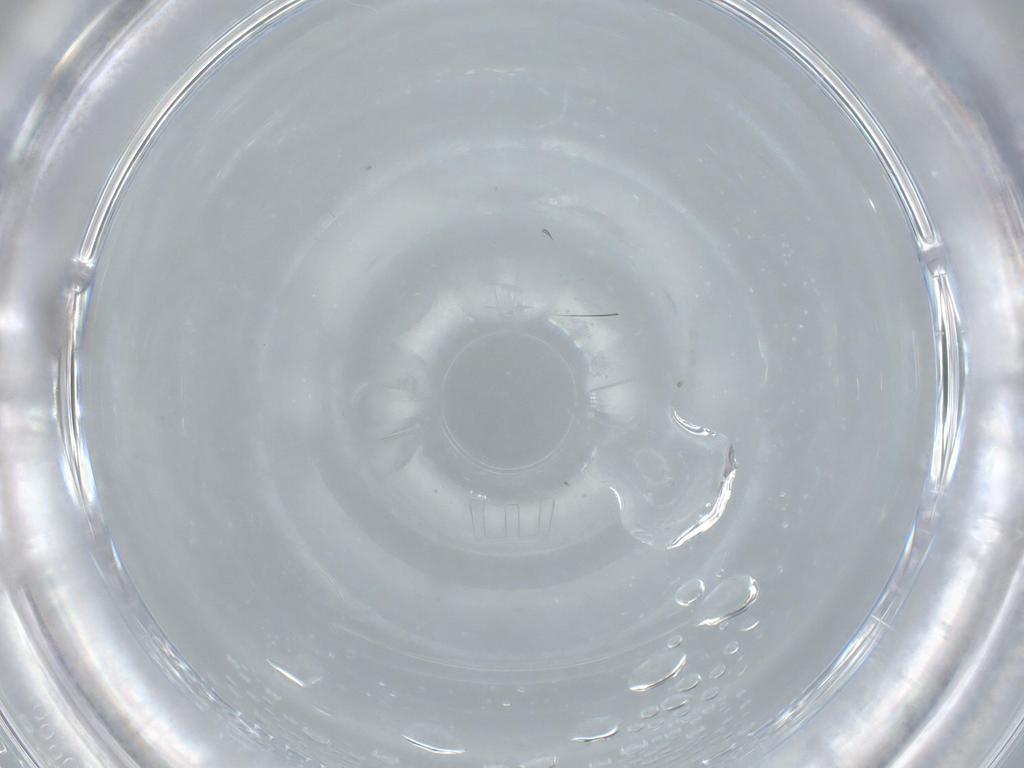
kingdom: Animalia
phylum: Arthropoda
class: Insecta
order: Diptera
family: Cecidomyiidae
